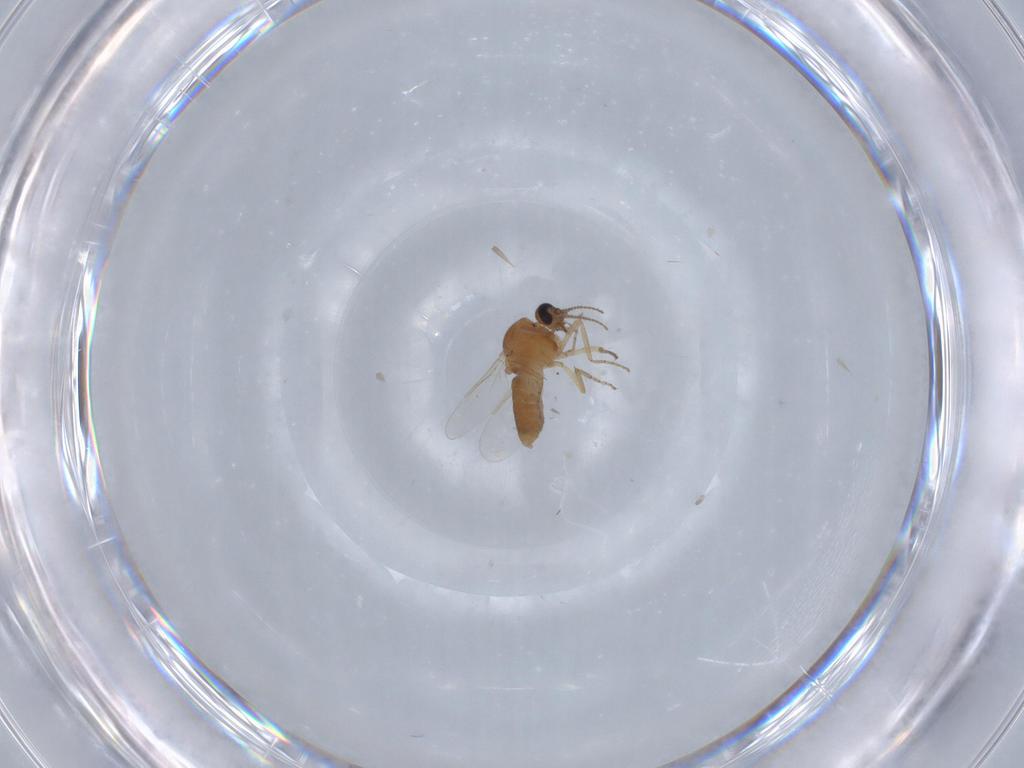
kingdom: Animalia
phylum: Arthropoda
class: Insecta
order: Diptera
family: Ceratopogonidae
